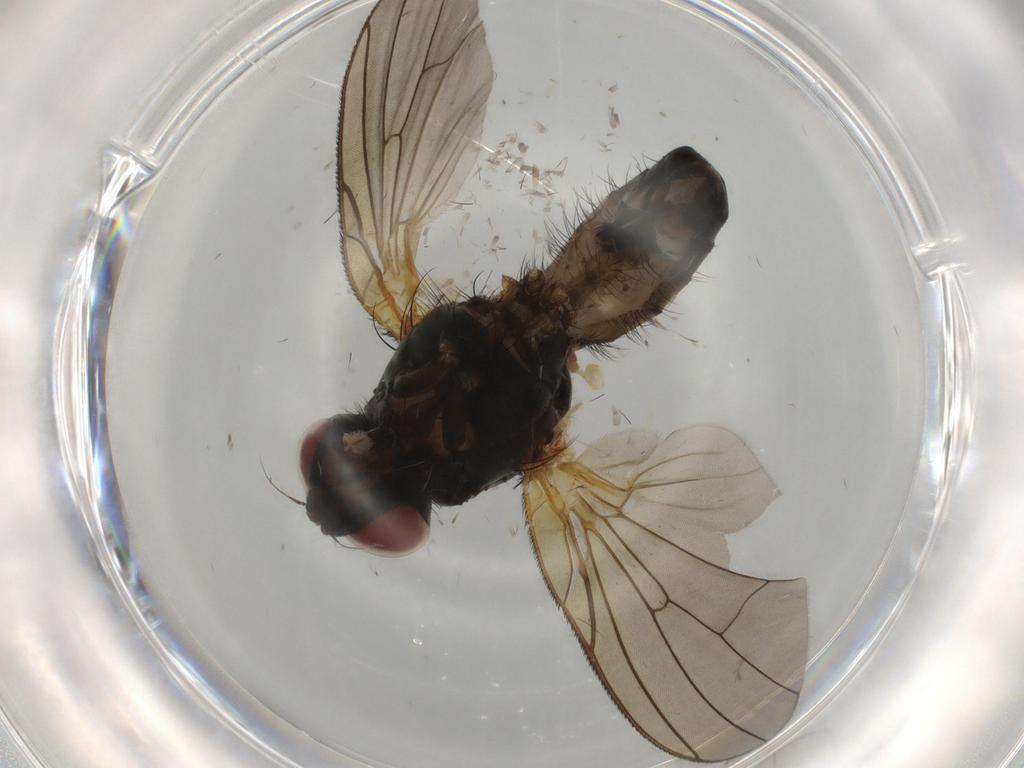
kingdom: Animalia
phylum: Arthropoda
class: Insecta
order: Diptera
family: Anthomyiidae
